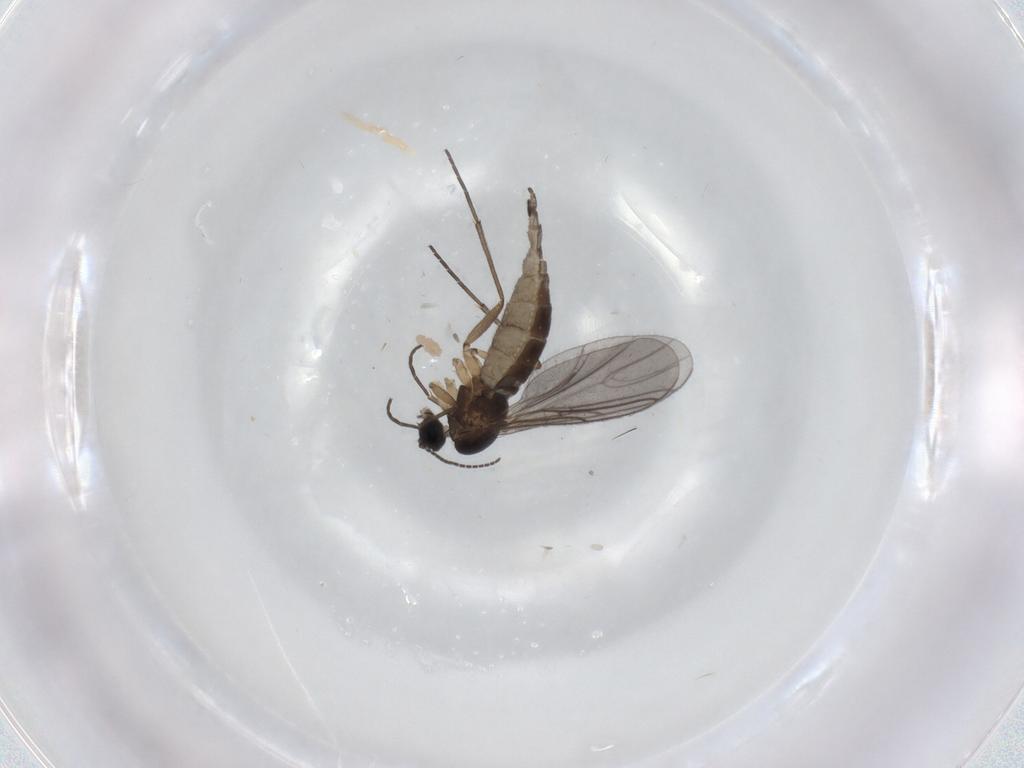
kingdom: Animalia
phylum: Arthropoda
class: Insecta
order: Diptera
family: Sciaridae
